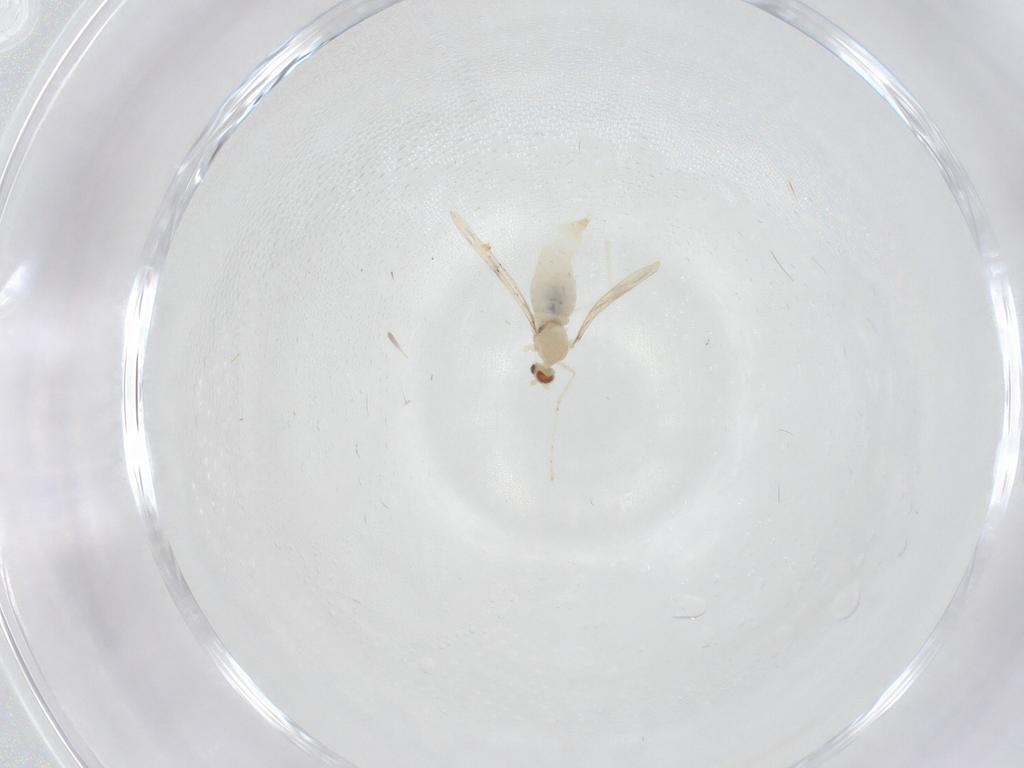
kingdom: Animalia
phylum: Arthropoda
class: Insecta
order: Diptera
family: Cecidomyiidae
